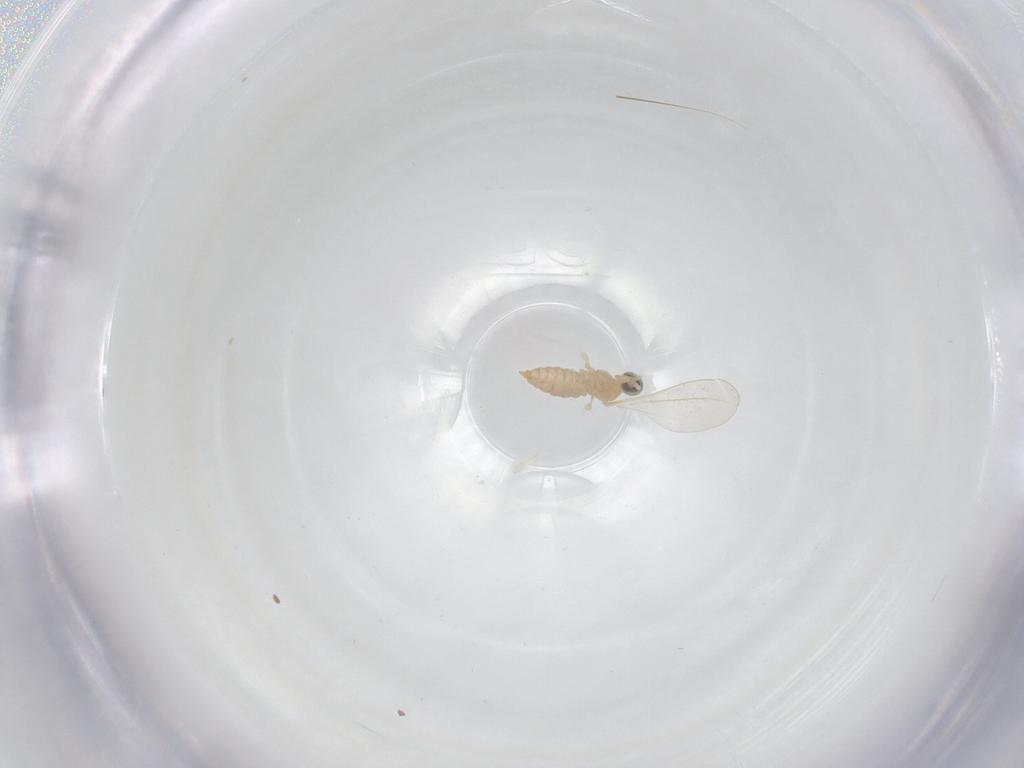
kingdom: Animalia
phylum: Arthropoda
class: Insecta
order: Diptera
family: Cecidomyiidae
